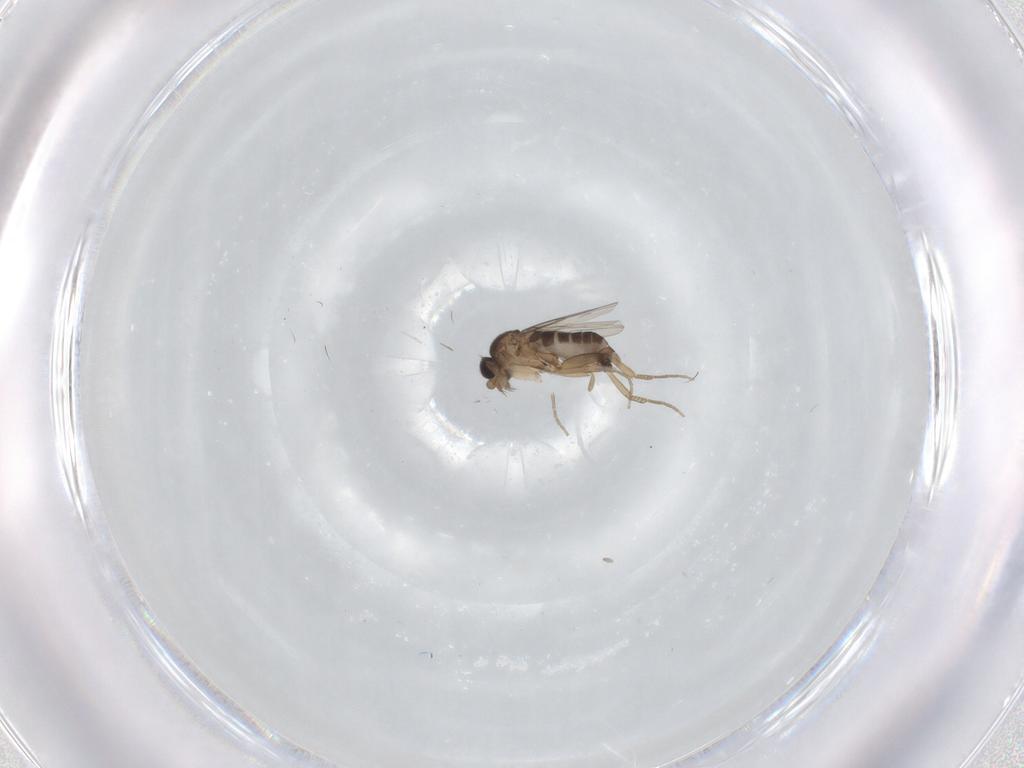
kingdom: Animalia
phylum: Arthropoda
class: Insecta
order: Diptera
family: Phoridae
